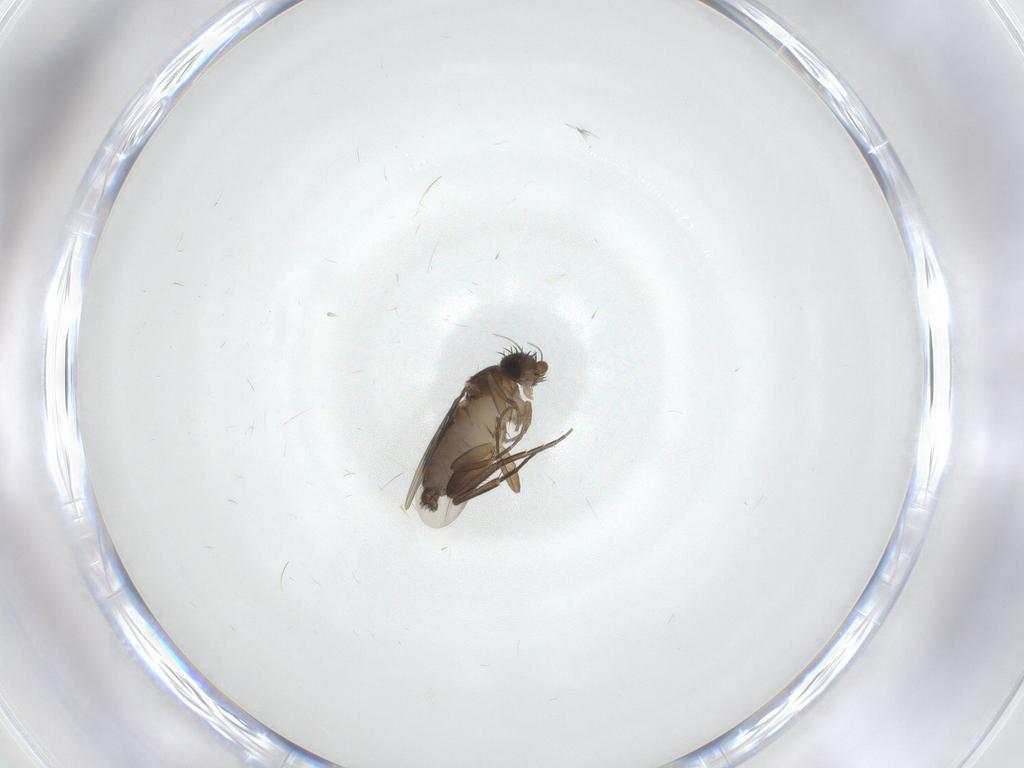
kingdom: Animalia
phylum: Arthropoda
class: Insecta
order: Diptera
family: Phoridae
